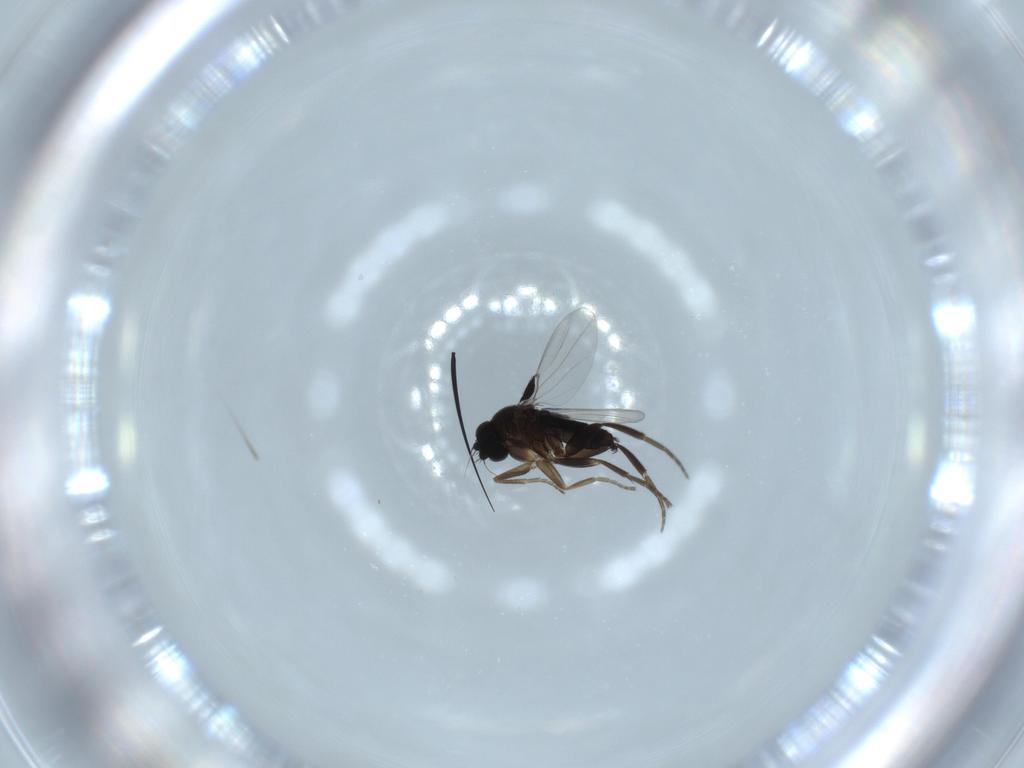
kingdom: Animalia
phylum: Arthropoda
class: Insecta
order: Diptera
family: Phoridae
